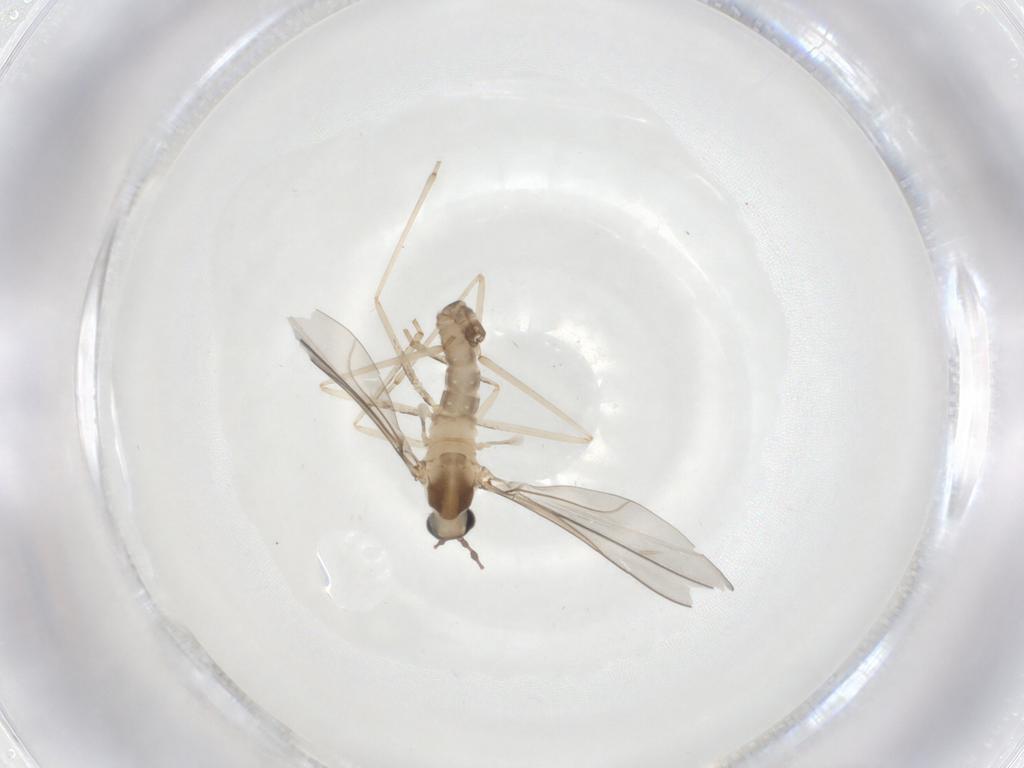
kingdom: Animalia
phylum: Arthropoda
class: Insecta
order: Diptera
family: Cecidomyiidae
